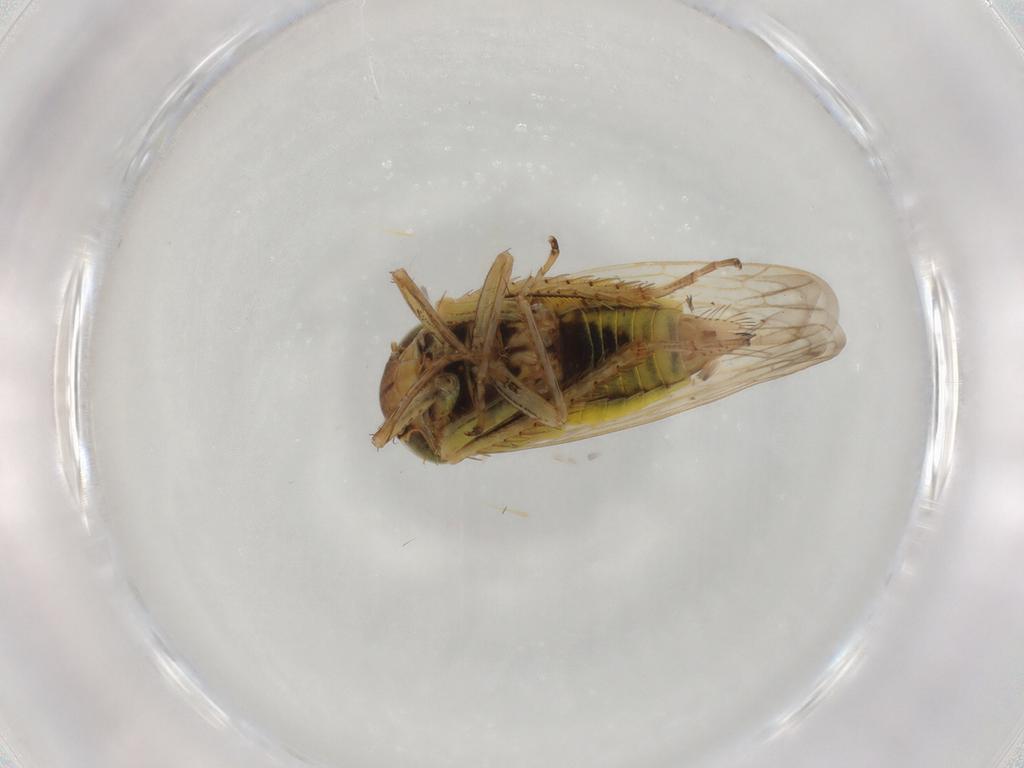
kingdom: Animalia
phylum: Arthropoda
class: Insecta
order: Hemiptera
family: Cicadellidae
